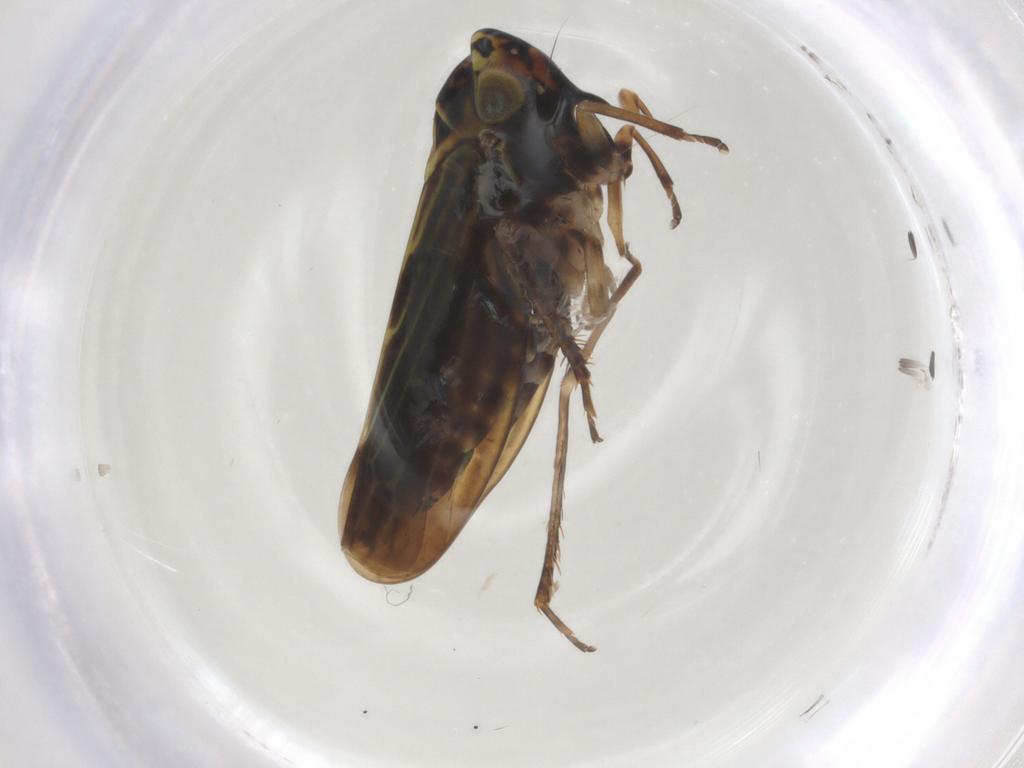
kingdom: Animalia
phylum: Arthropoda
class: Insecta
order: Hemiptera
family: Cicadellidae
